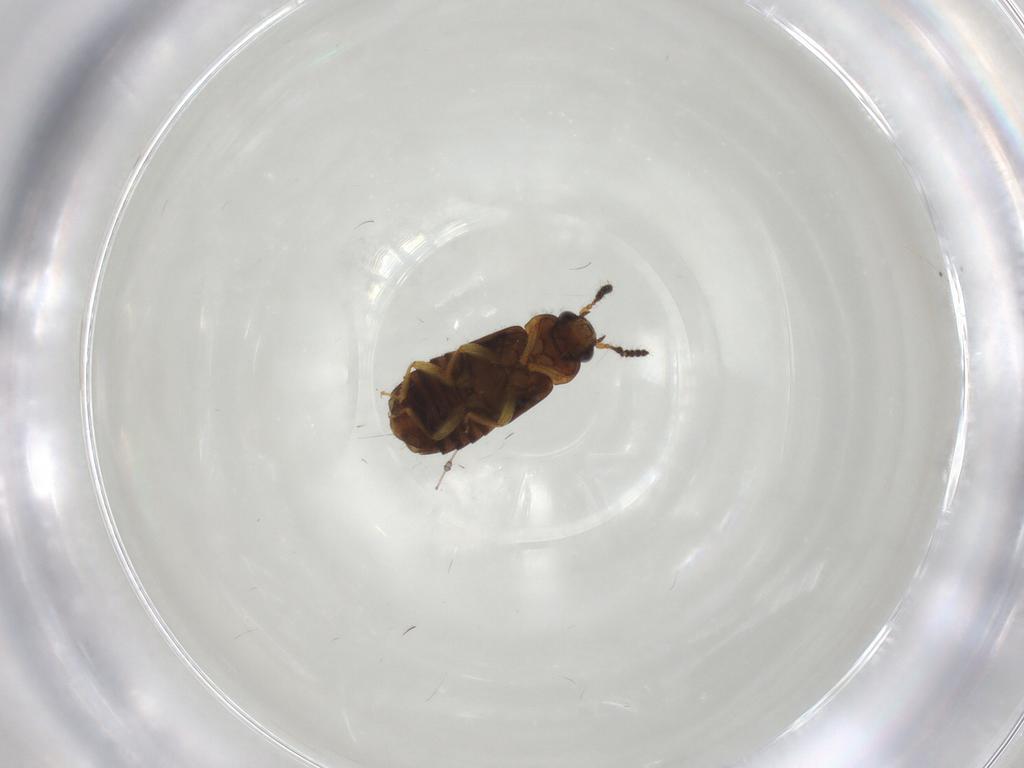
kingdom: Animalia
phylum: Arthropoda
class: Insecta
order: Coleoptera
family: Staphylinidae
